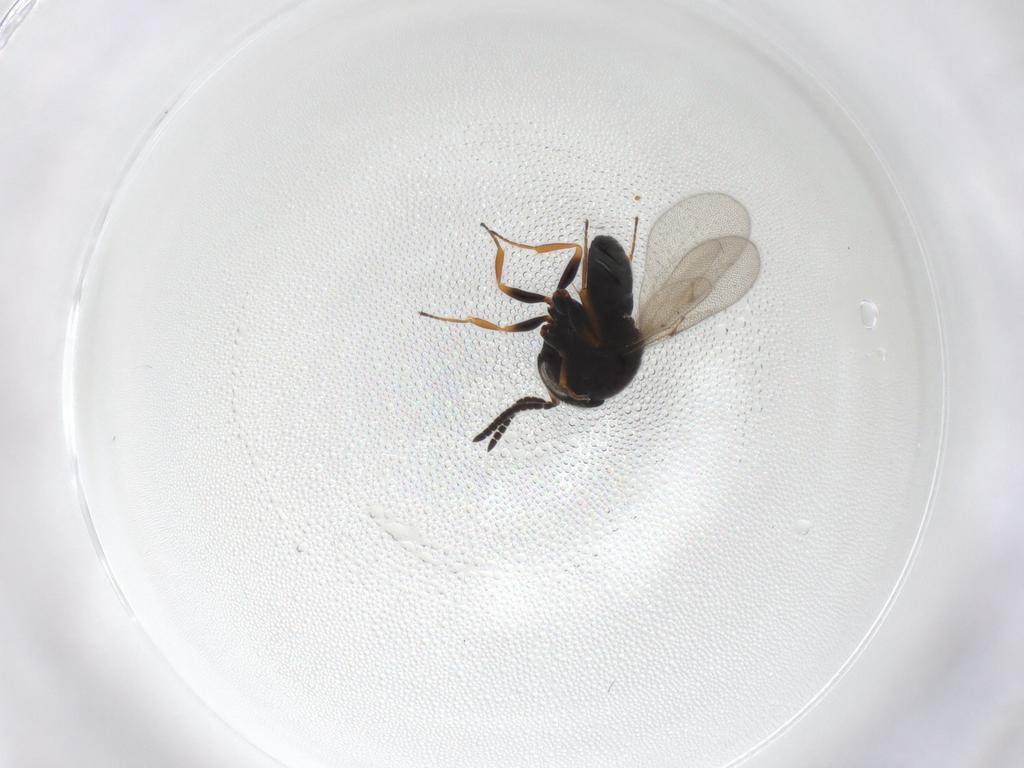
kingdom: Animalia
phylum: Arthropoda
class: Insecta
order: Hymenoptera
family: Scelionidae
